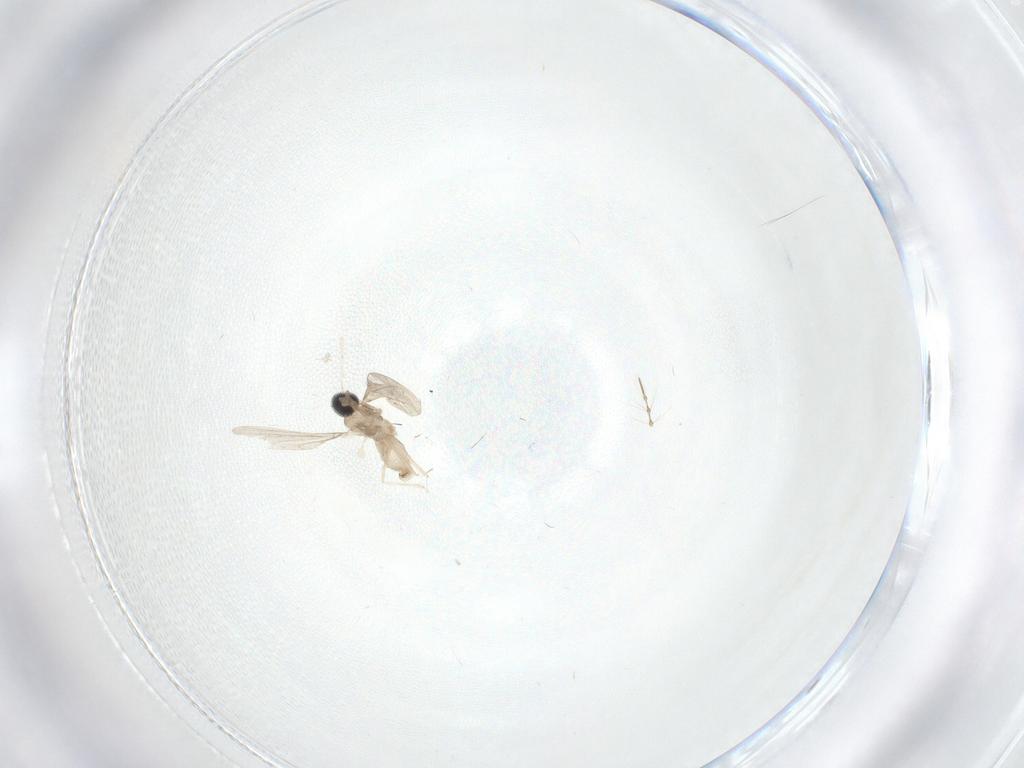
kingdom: Animalia
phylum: Arthropoda
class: Insecta
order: Diptera
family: Cecidomyiidae
